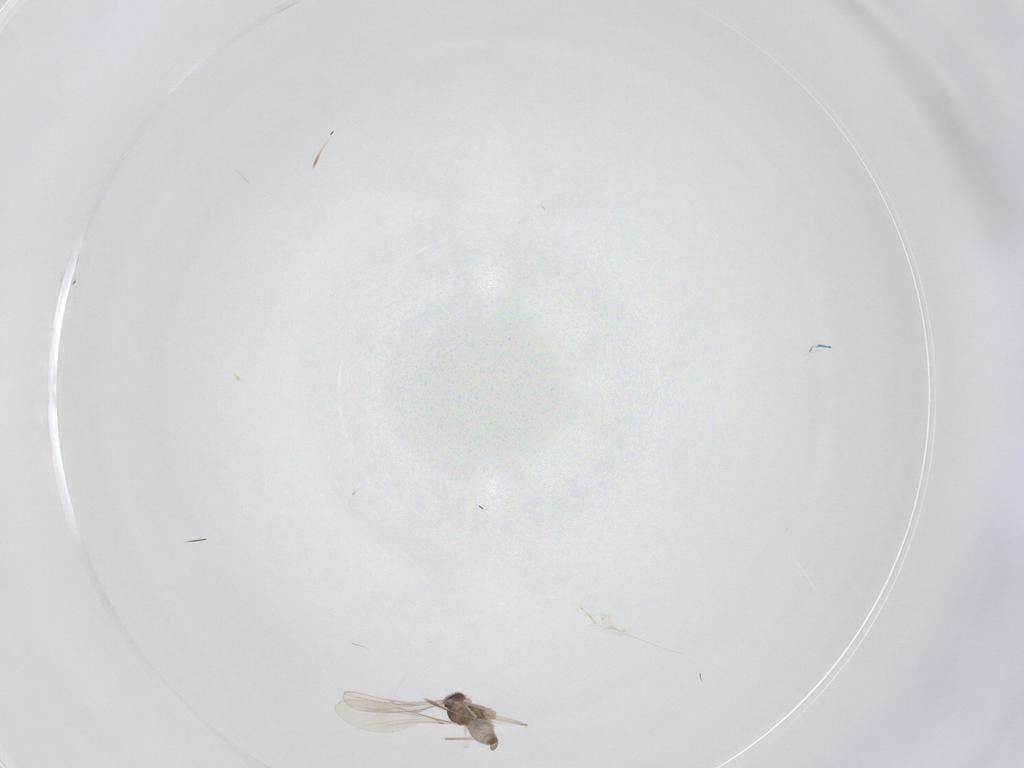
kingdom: Animalia
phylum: Arthropoda
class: Insecta
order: Diptera
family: Cecidomyiidae
